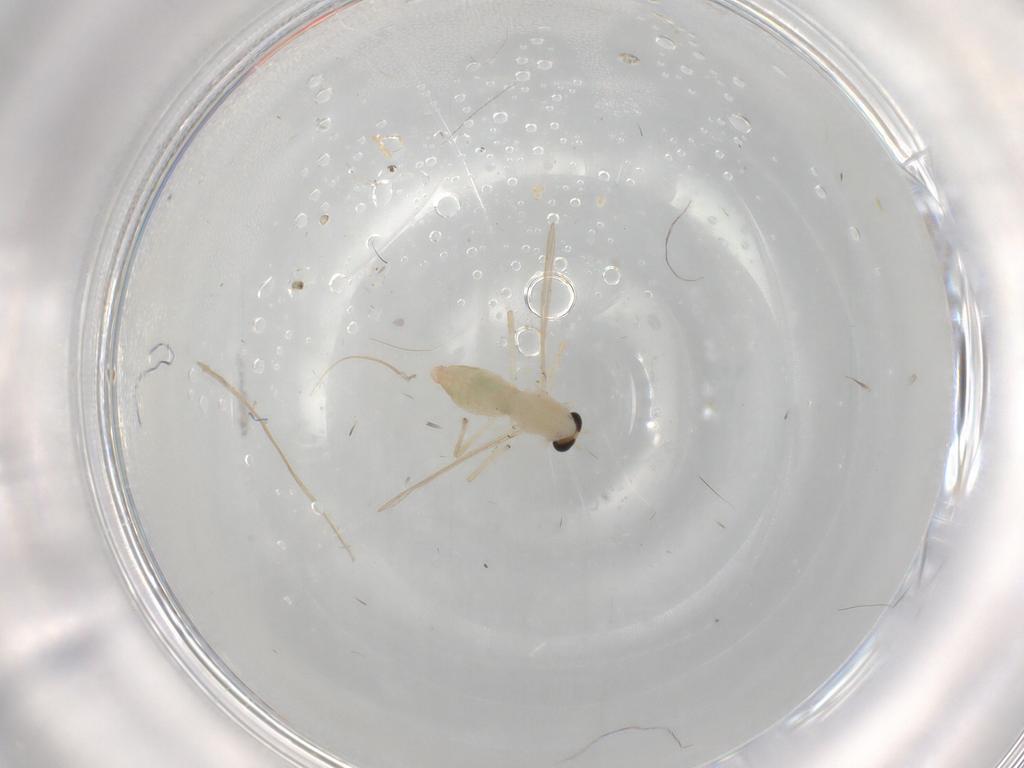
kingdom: Animalia
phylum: Arthropoda
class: Insecta
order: Diptera
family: Chironomidae
